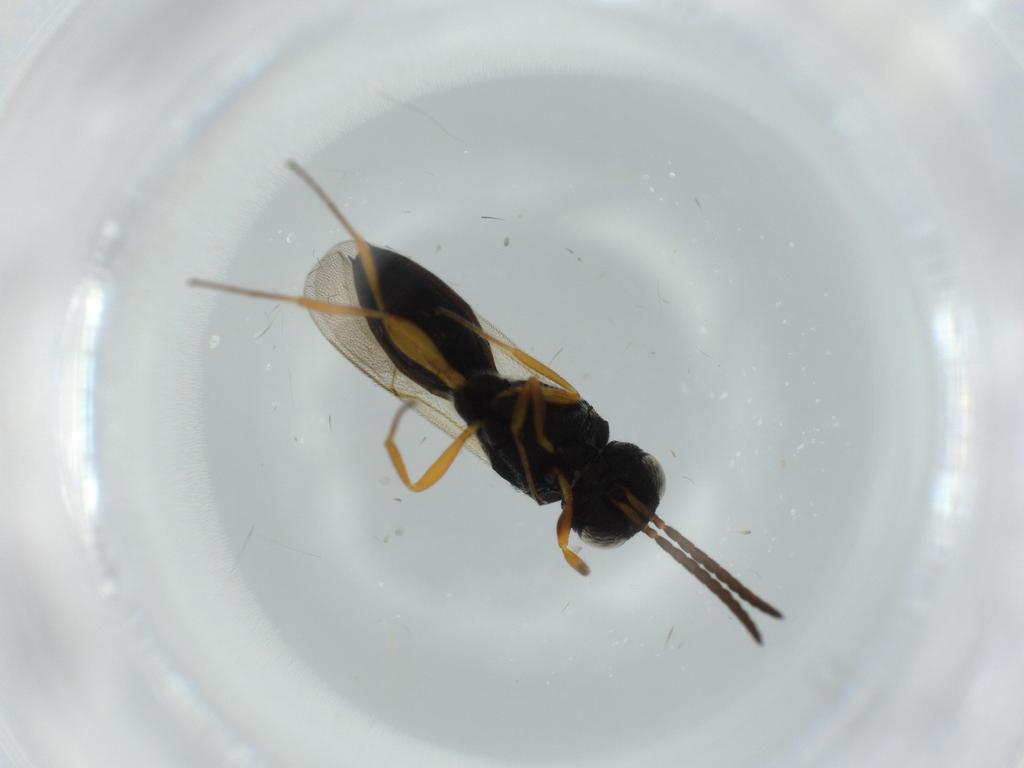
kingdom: Animalia
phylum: Arthropoda
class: Insecta
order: Hymenoptera
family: Scelionidae
